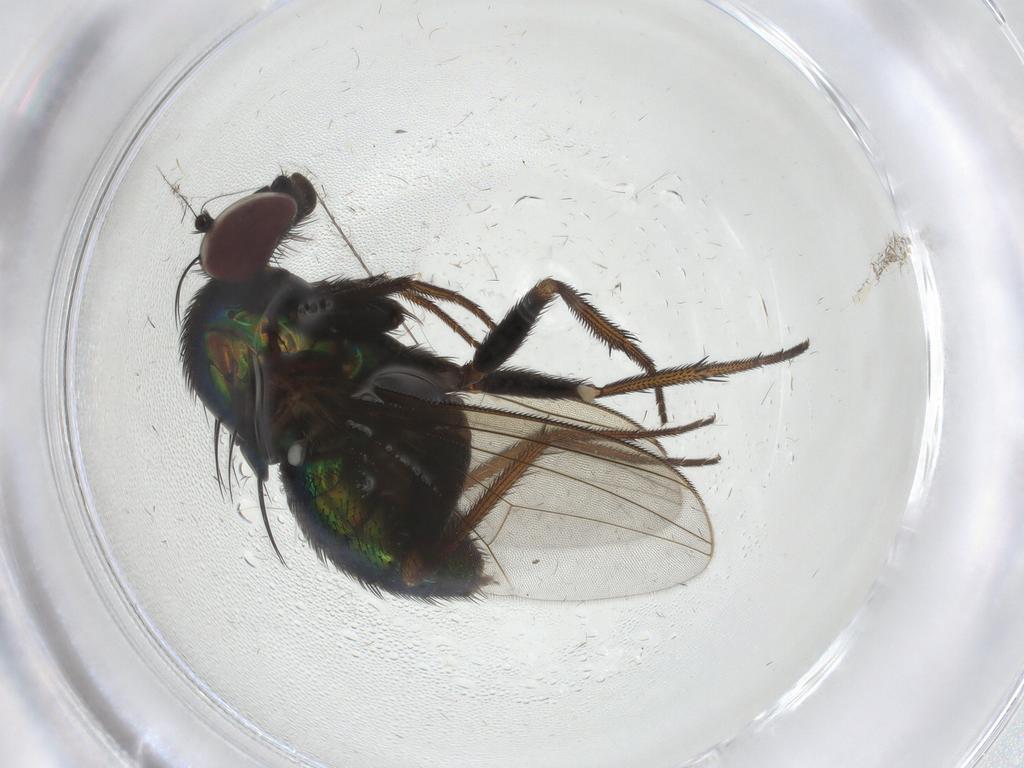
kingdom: Animalia
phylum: Arthropoda
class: Insecta
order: Diptera
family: Dolichopodidae
